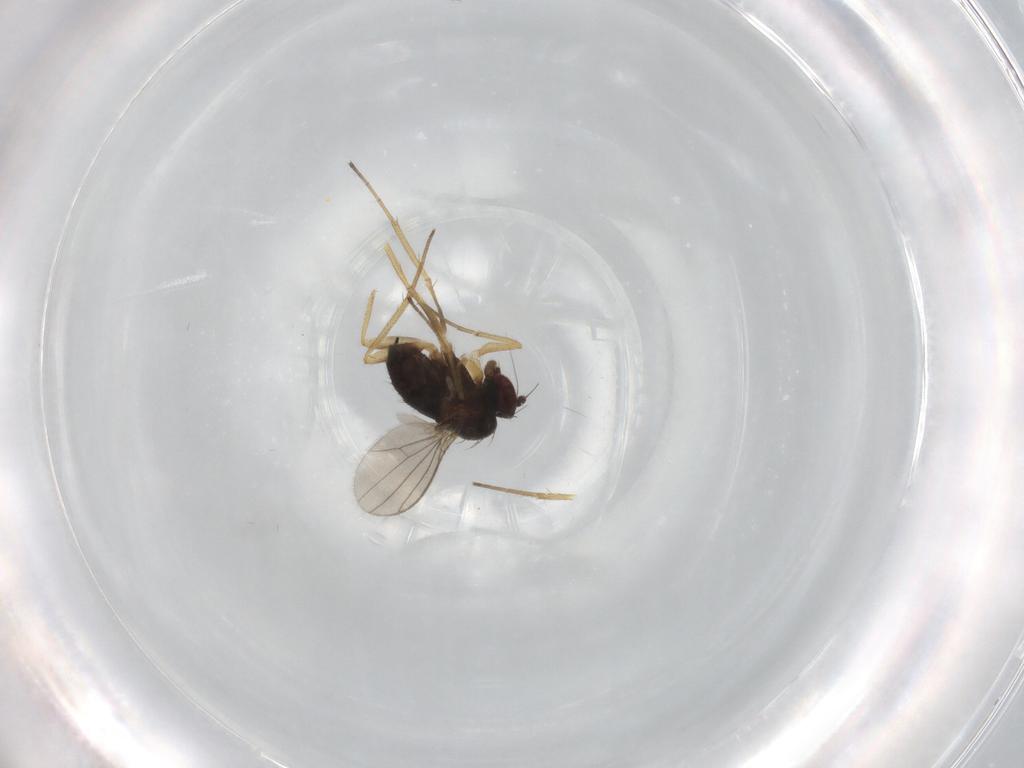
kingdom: Animalia
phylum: Arthropoda
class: Insecta
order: Diptera
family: Dolichopodidae
